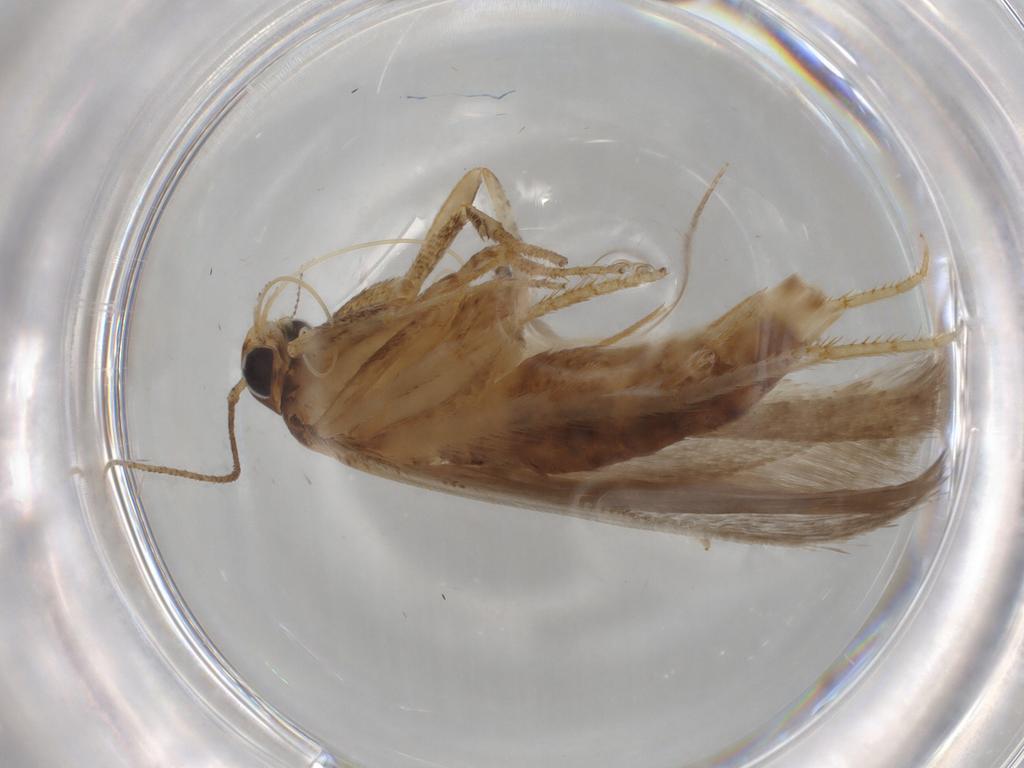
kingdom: Animalia
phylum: Arthropoda
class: Insecta
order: Lepidoptera
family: Gelechiidae
